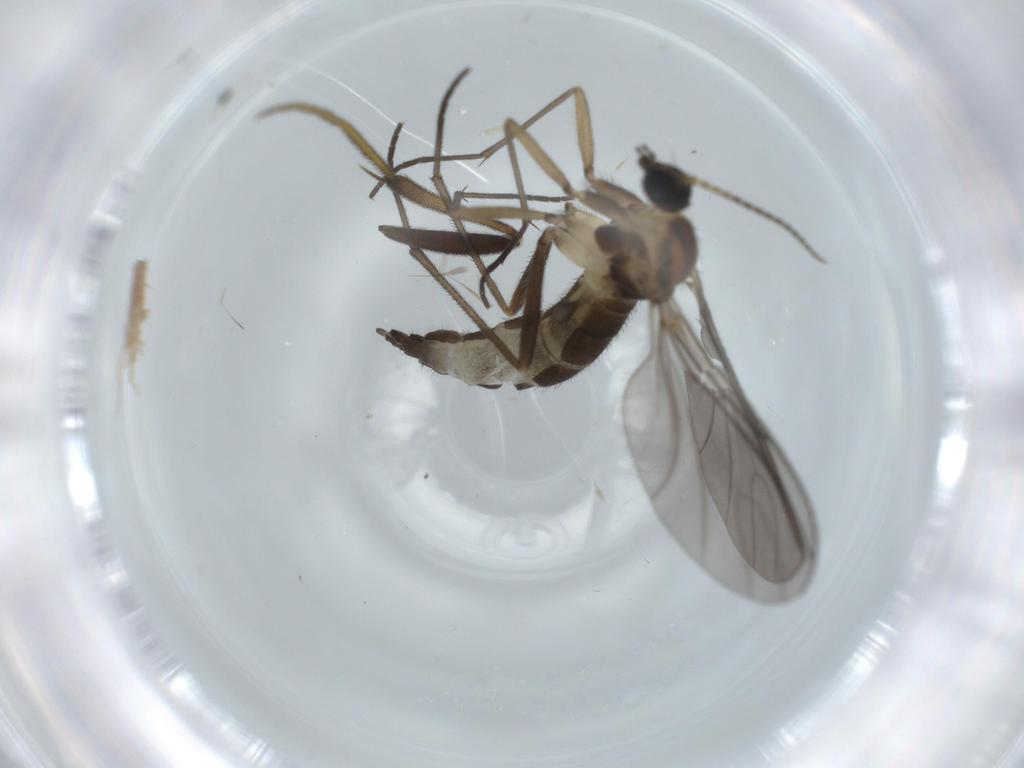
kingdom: Animalia
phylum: Arthropoda
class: Insecta
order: Diptera
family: Sciaridae
